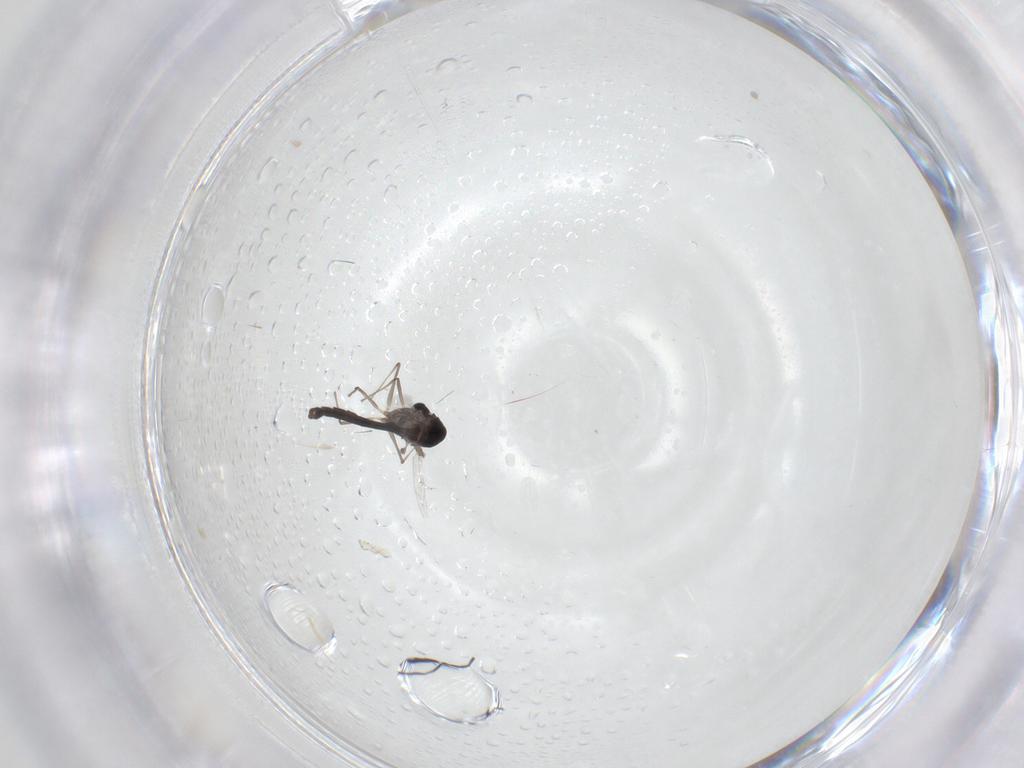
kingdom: Animalia
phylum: Arthropoda
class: Insecta
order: Diptera
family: Chironomidae
